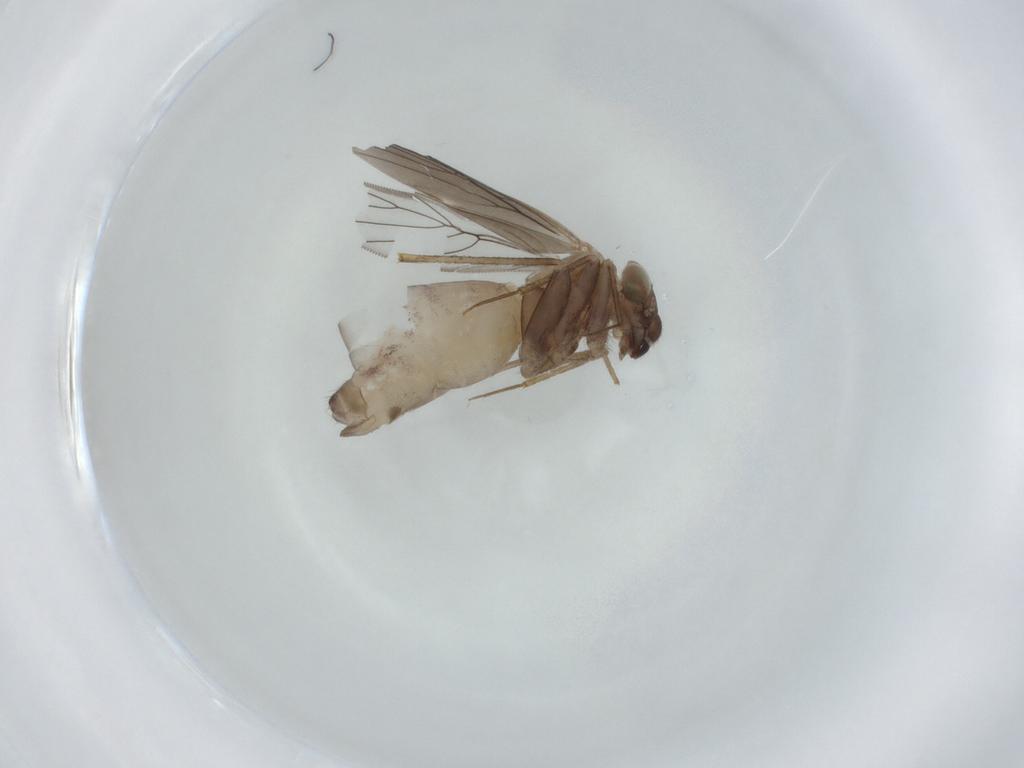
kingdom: Animalia
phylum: Arthropoda
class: Insecta
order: Psocodea
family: Lepidopsocidae
